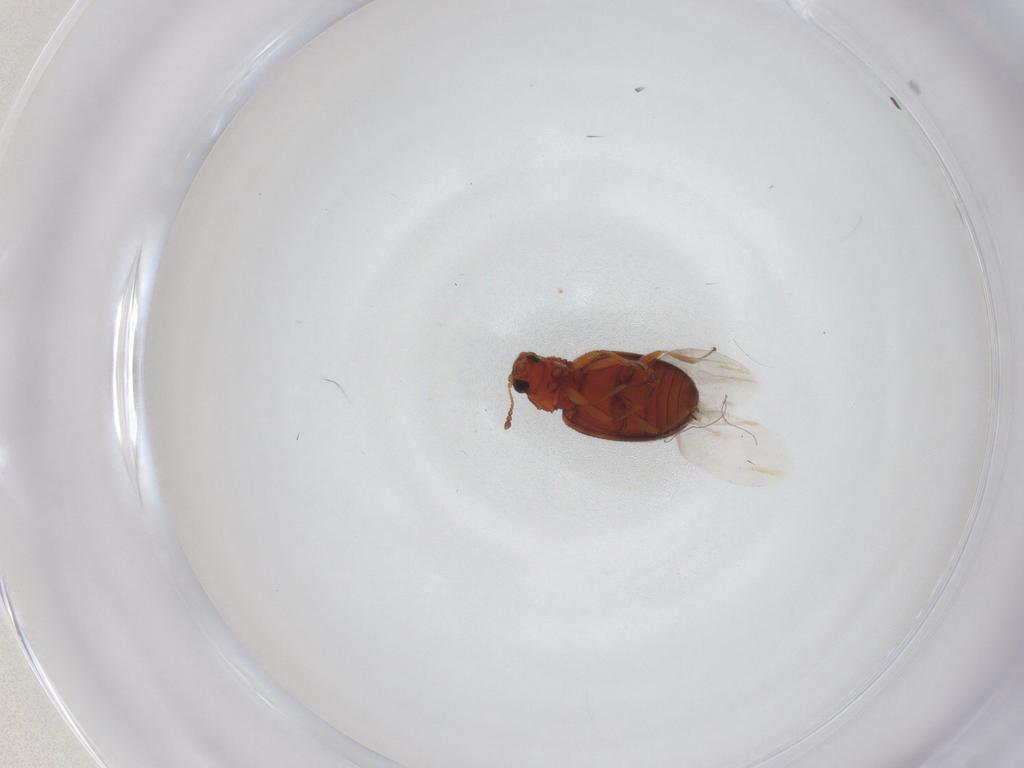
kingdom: Animalia
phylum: Arthropoda
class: Insecta
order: Coleoptera
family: Latridiidae
